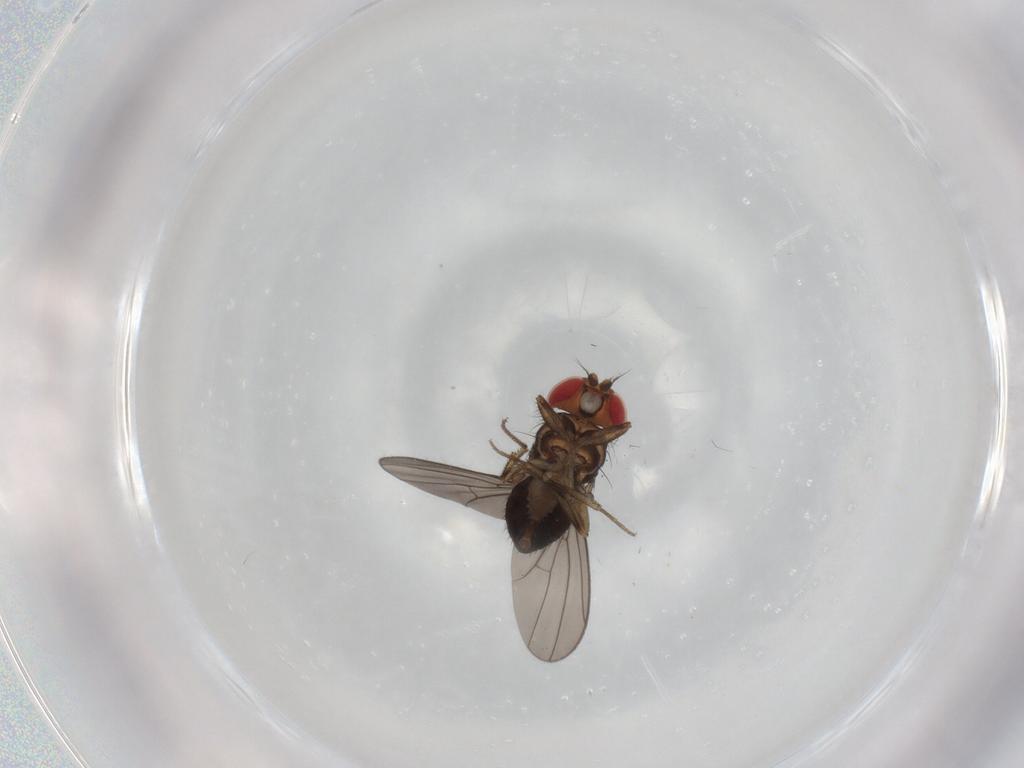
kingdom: Animalia
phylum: Arthropoda
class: Insecta
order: Diptera
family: Drosophilidae
